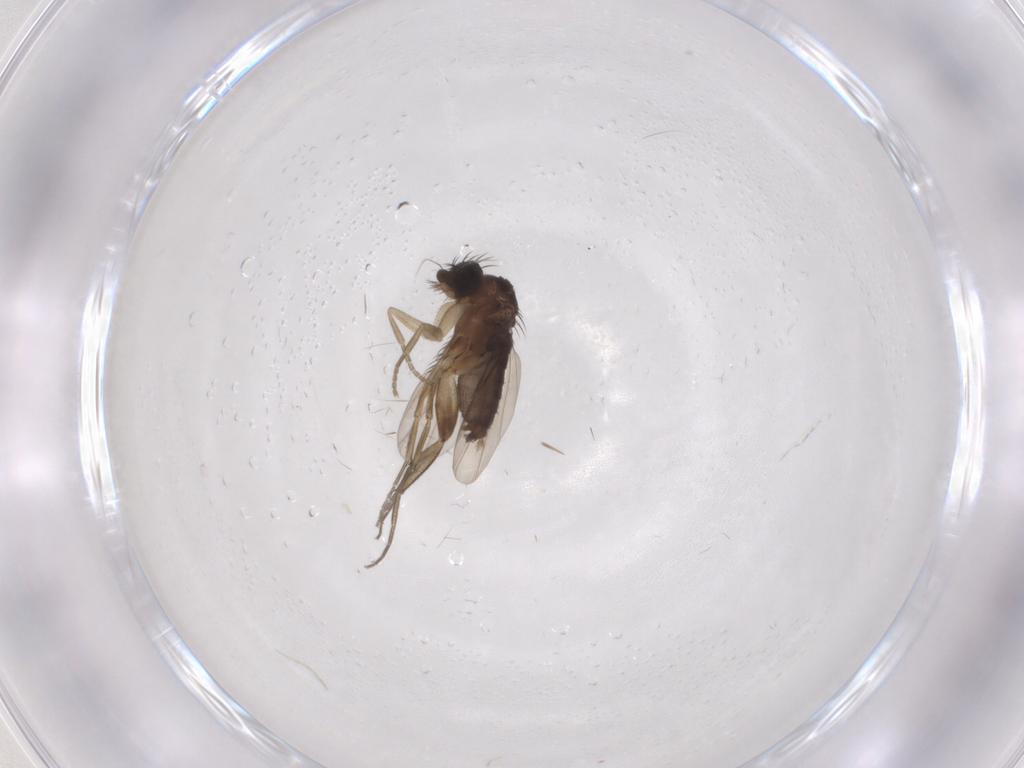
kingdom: Animalia
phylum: Arthropoda
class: Insecta
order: Diptera
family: Phoridae
